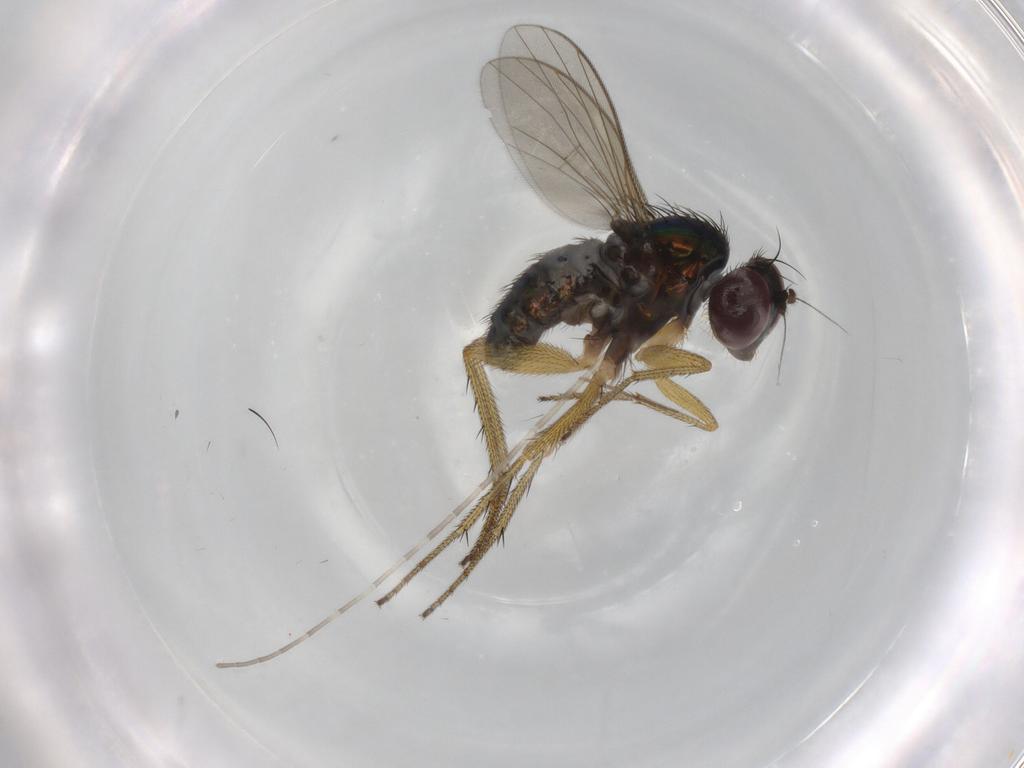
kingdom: Animalia
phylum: Arthropoda
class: Insecta
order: Diptera
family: Dolichopodidae
